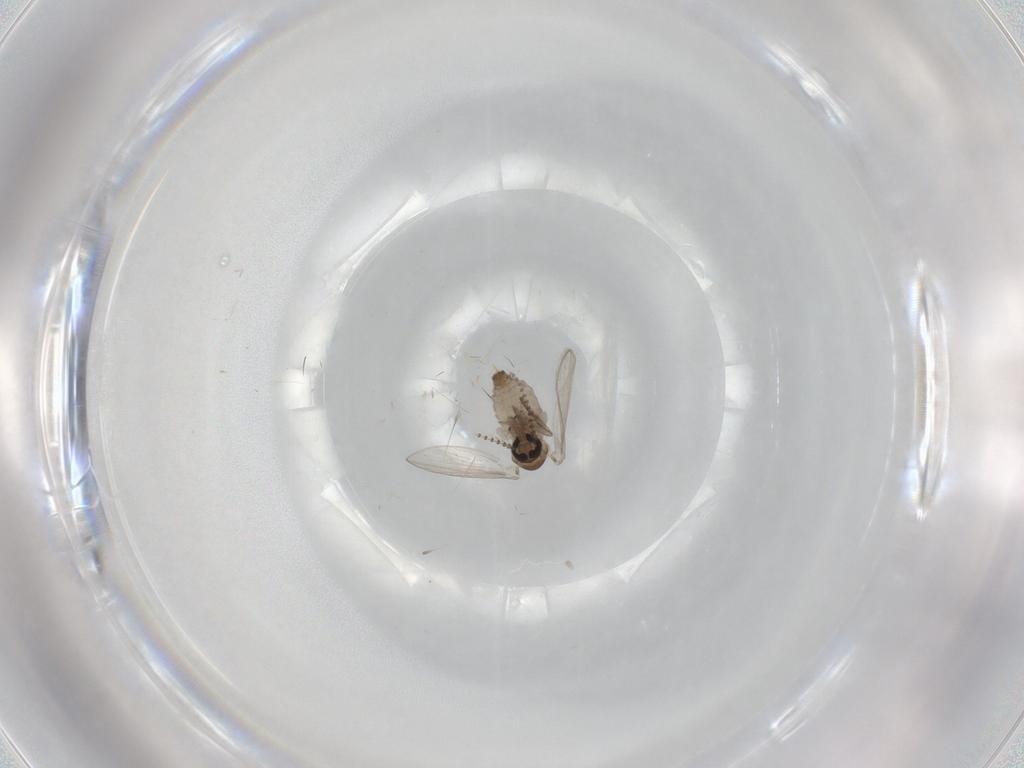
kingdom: Animalia
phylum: Arthropoda
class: Insecta
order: Diptera
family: Psychodidae
